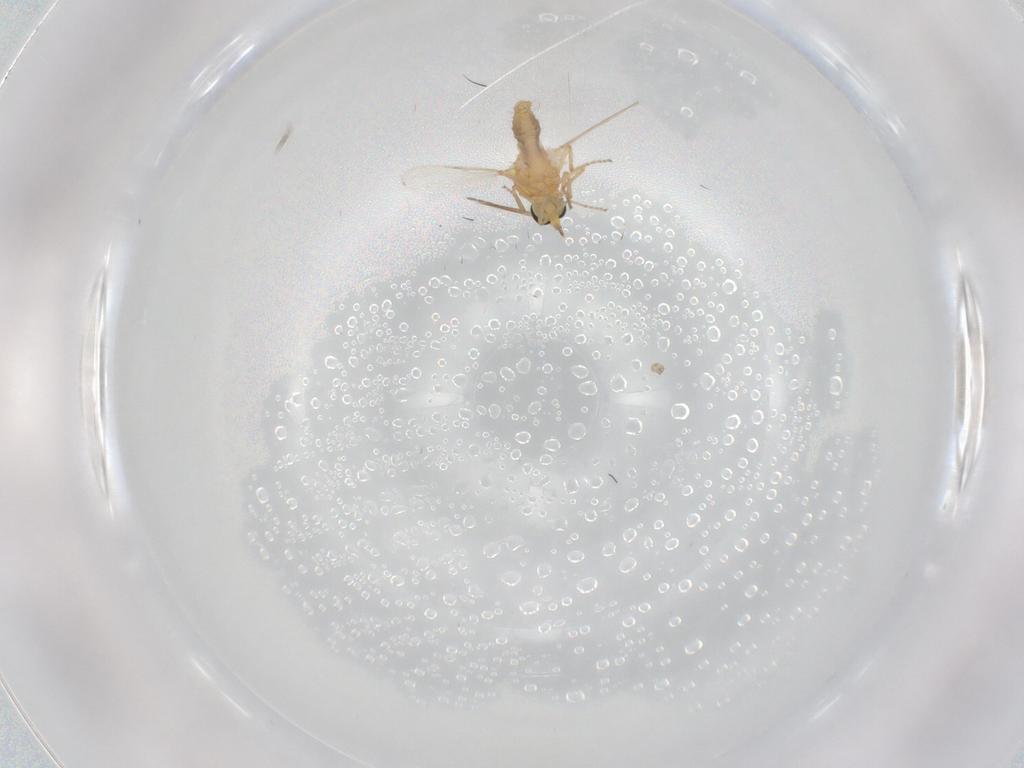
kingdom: Animalia
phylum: Arthropoda
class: Insecta
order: Diptera
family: Ceratopogonidae
